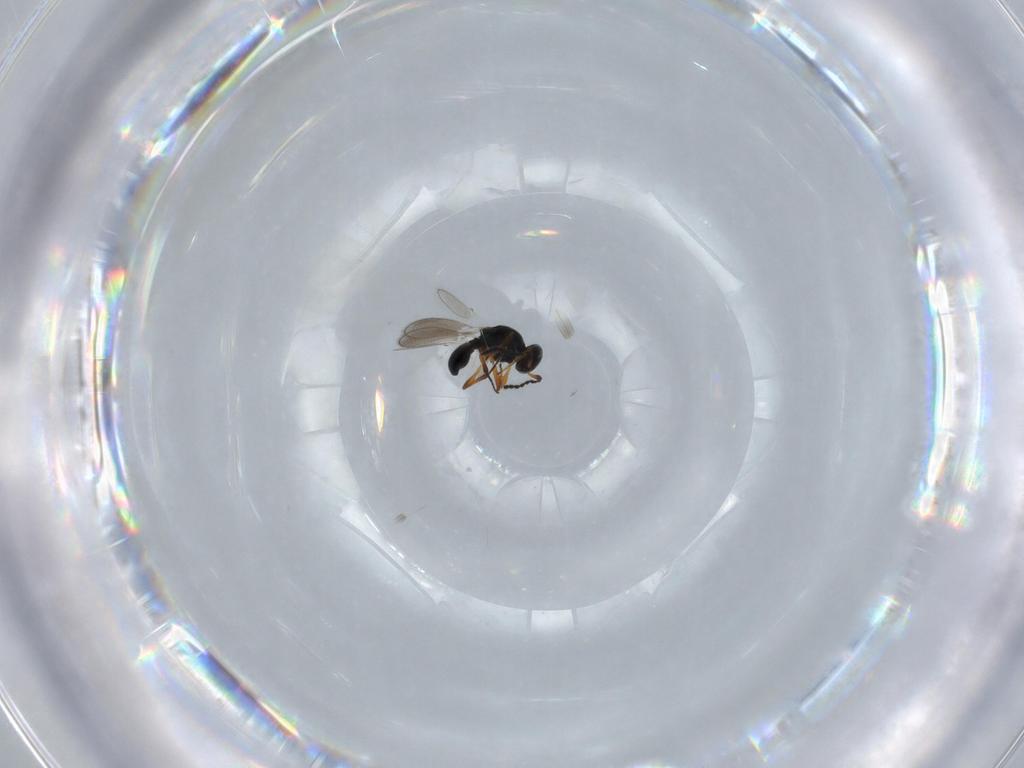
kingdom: Animalia
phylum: Arthropoda
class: Insecta
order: Hymenoptera
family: Platygastridae
